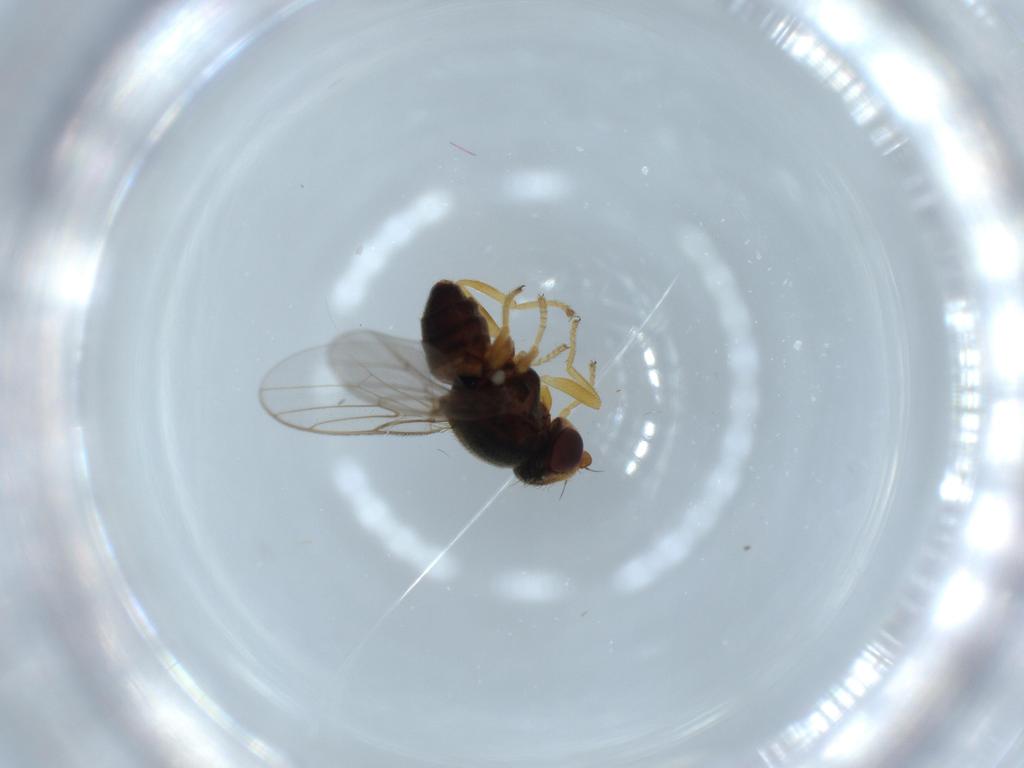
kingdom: Animalia
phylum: Arthropoda
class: Insecta
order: Diptera
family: Chloropidae
